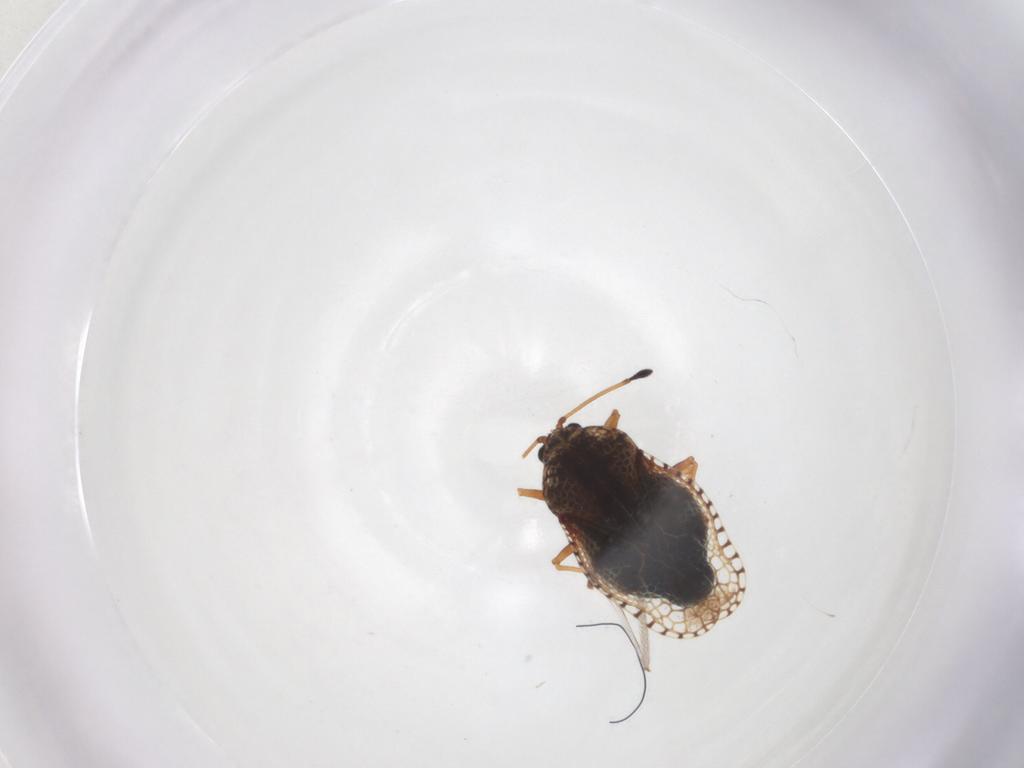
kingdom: Animalia
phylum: Arthropoda
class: Insecta
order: Hemiptera
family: Tingidae
